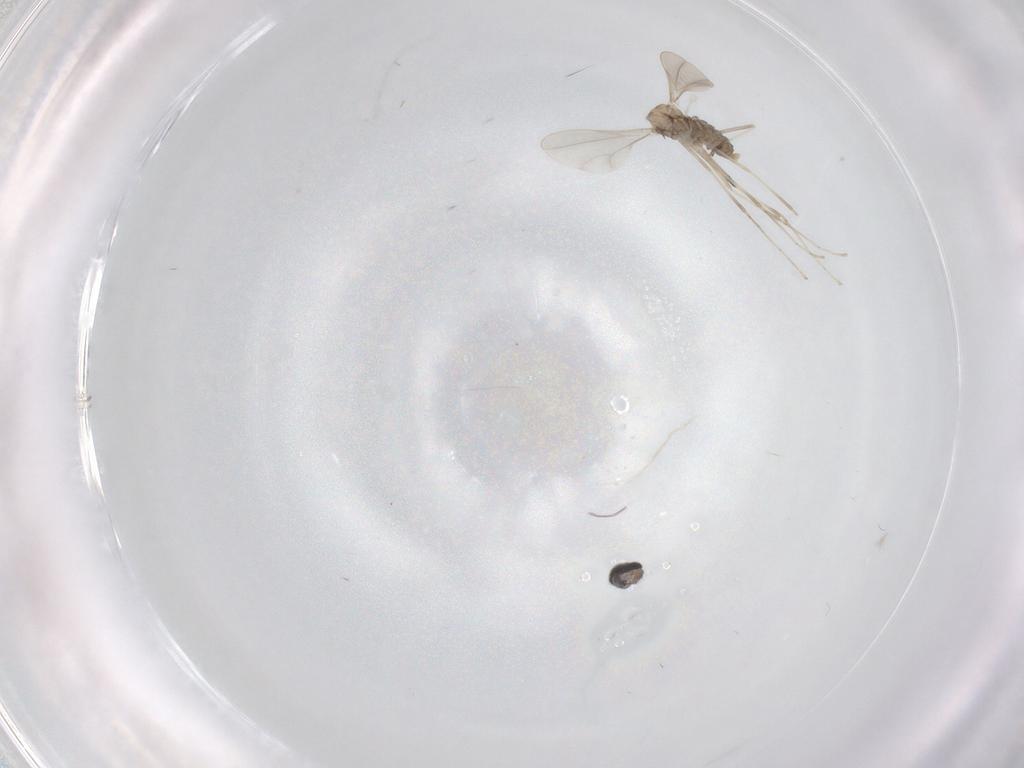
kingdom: Animalia
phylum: Arthropoda
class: Insecta
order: Diptera
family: Cecidomyiidae
